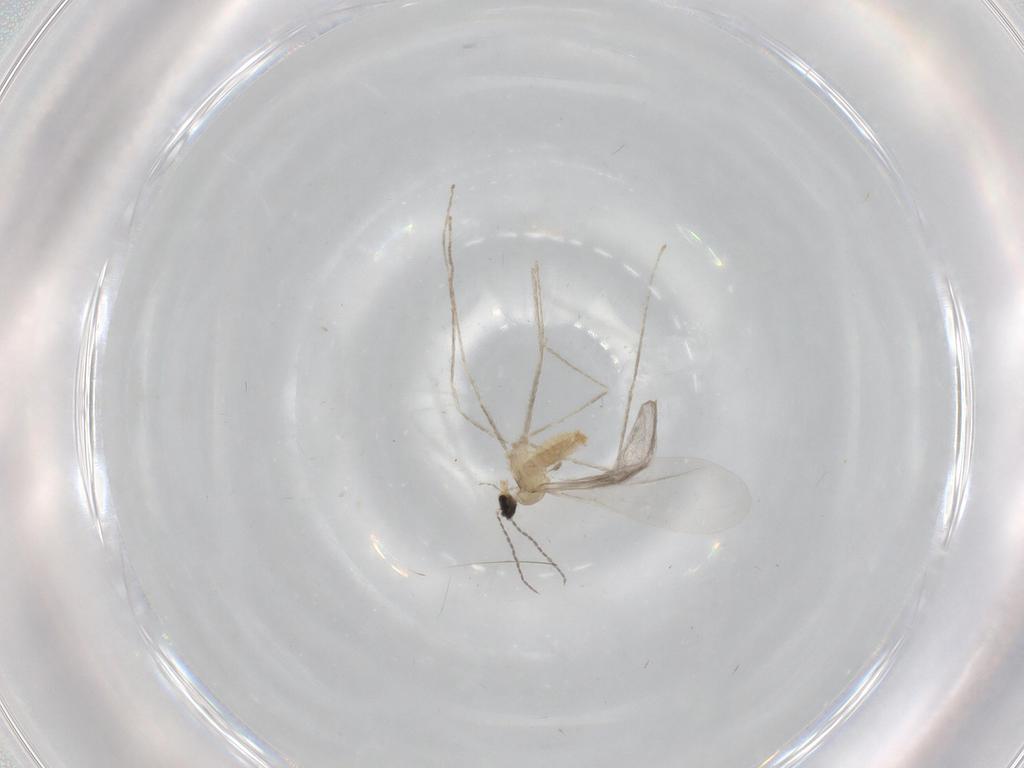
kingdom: Animalia
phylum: Arthropoda
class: Insecta
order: Diptera
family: Cecidomyiidae
